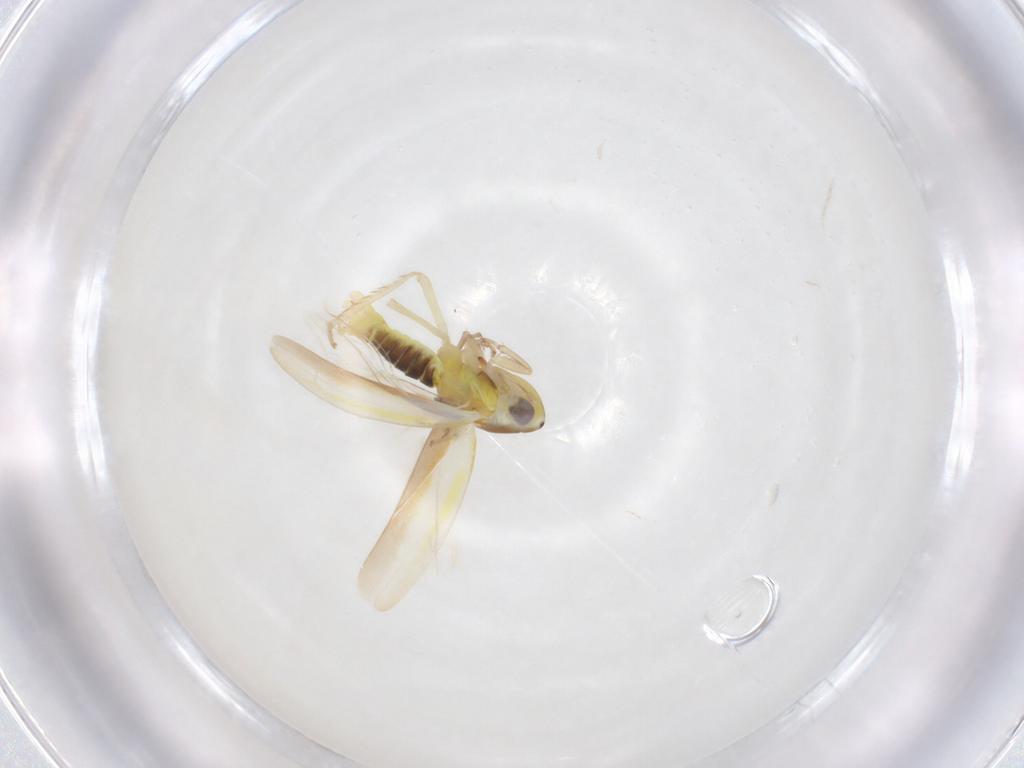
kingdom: Animalia
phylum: Arthropoda
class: Insecta
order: Hemiptera
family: Cicadellidae
